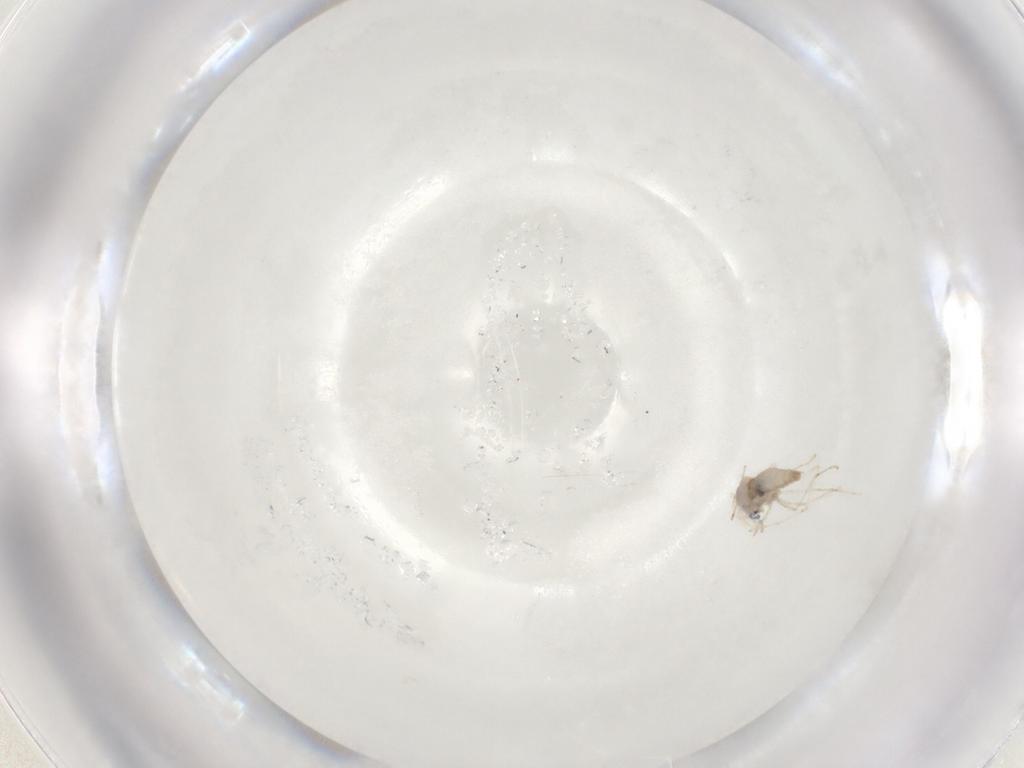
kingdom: Animalia
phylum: Arthropoda
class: Insecta
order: Diptera
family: Cecidomyiidae
